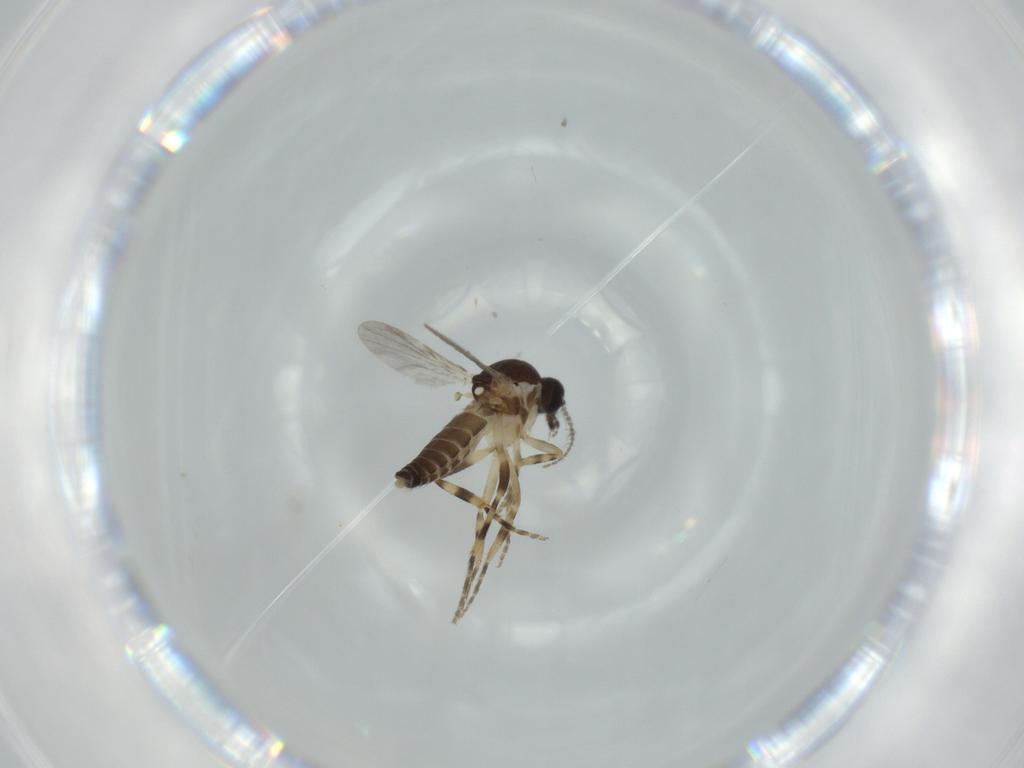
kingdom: Animalia
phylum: Arthropoda
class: Insecta
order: Diptera
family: Ceratopogonidae
